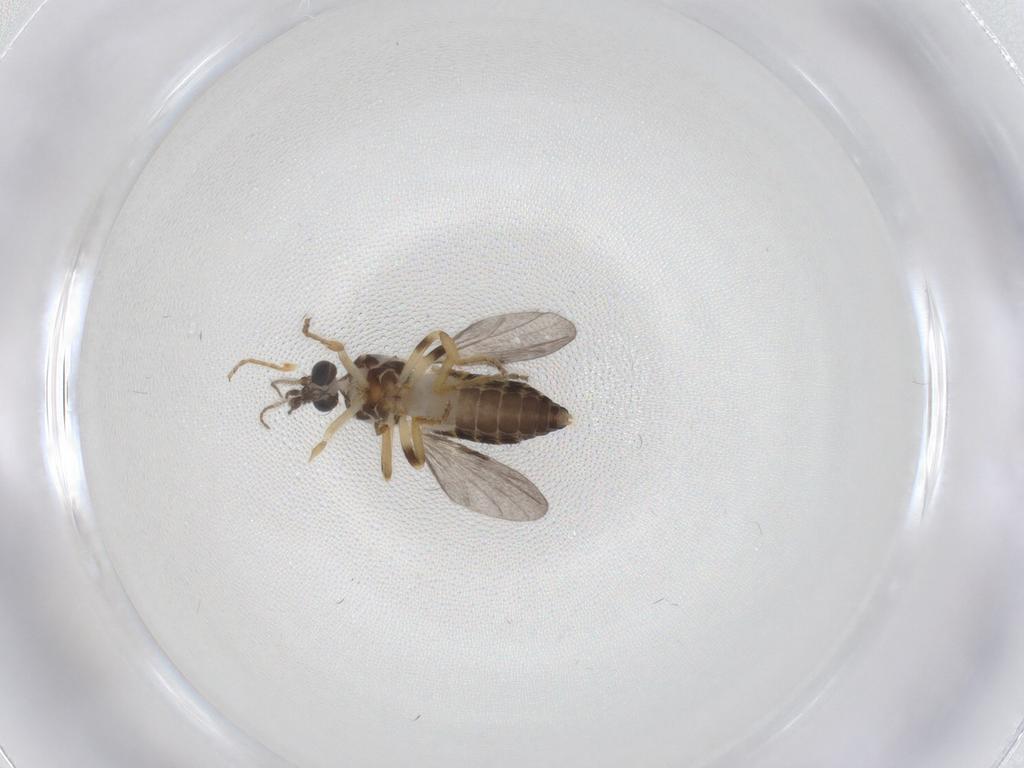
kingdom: Animalia
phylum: Arthropoda
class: Insecta
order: Diptera
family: Ceratopogonidae
